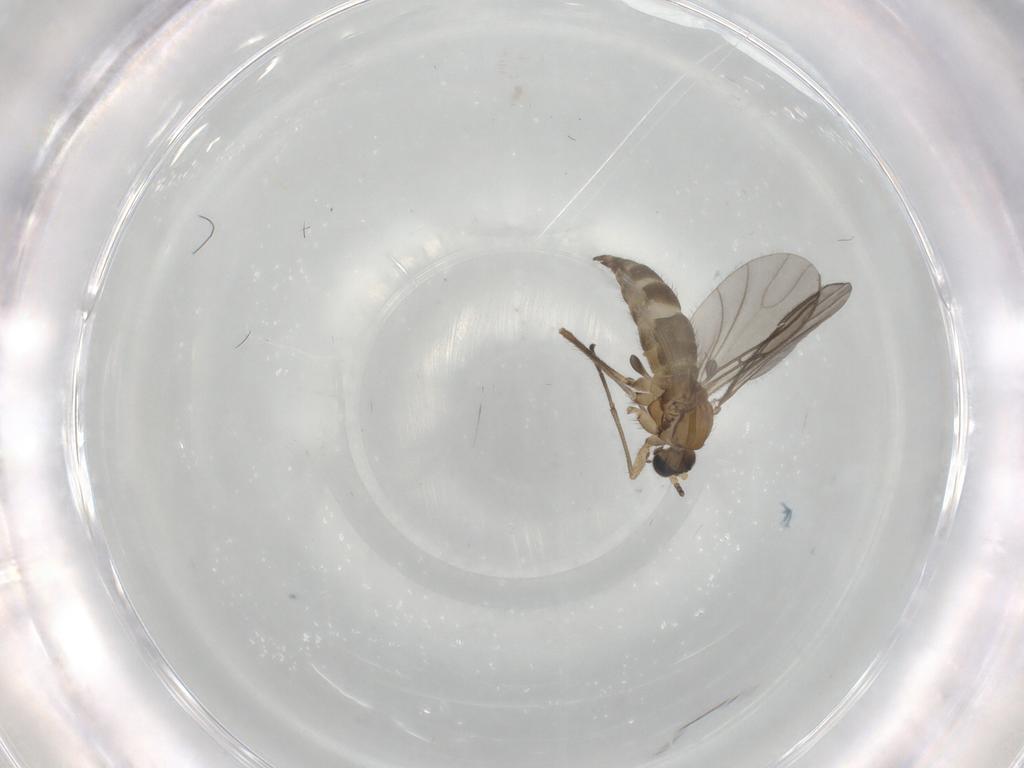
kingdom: Animalia
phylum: Arthropoda
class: Insecta
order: Diptera
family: Sciaridae
